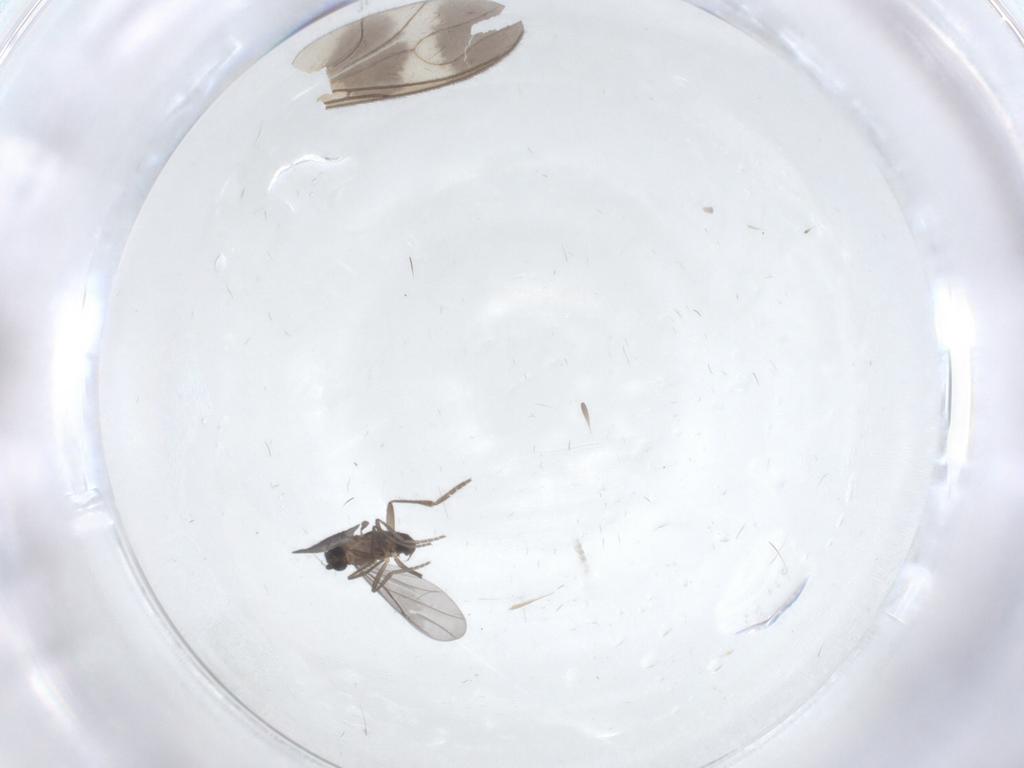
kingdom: Animalia
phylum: Arthropoda
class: Insecta
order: Diptera
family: Phoridae
